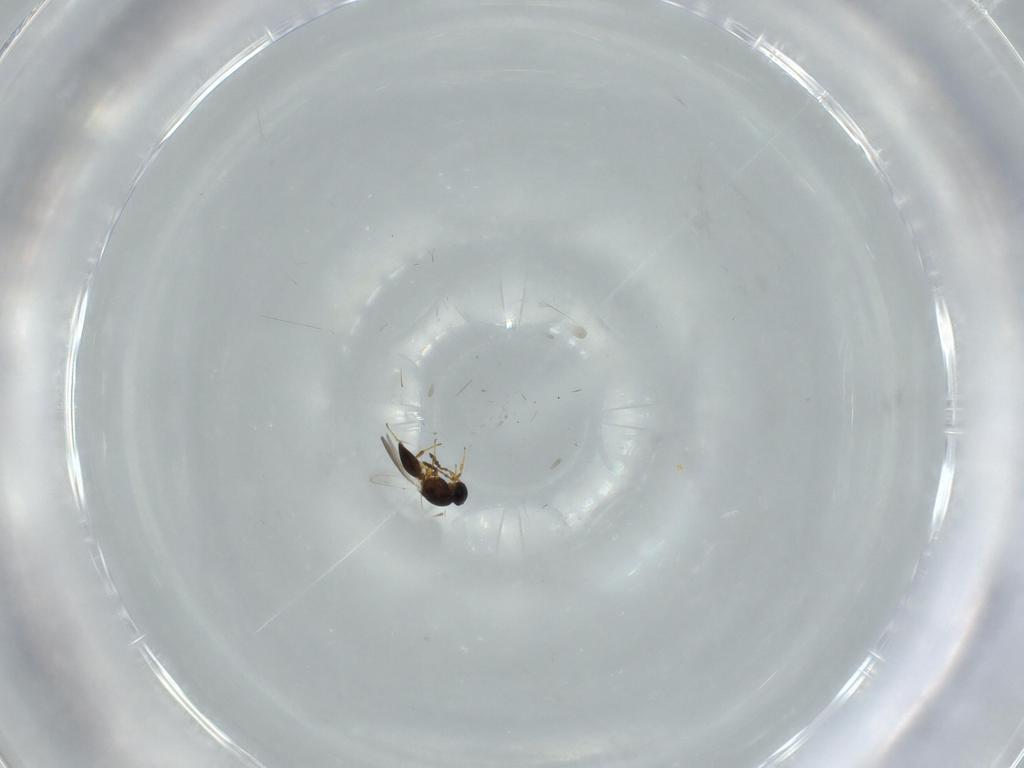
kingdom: Animalia
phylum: Arthropoda
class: Insecta
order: Hymenoptera
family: Platygastridae
